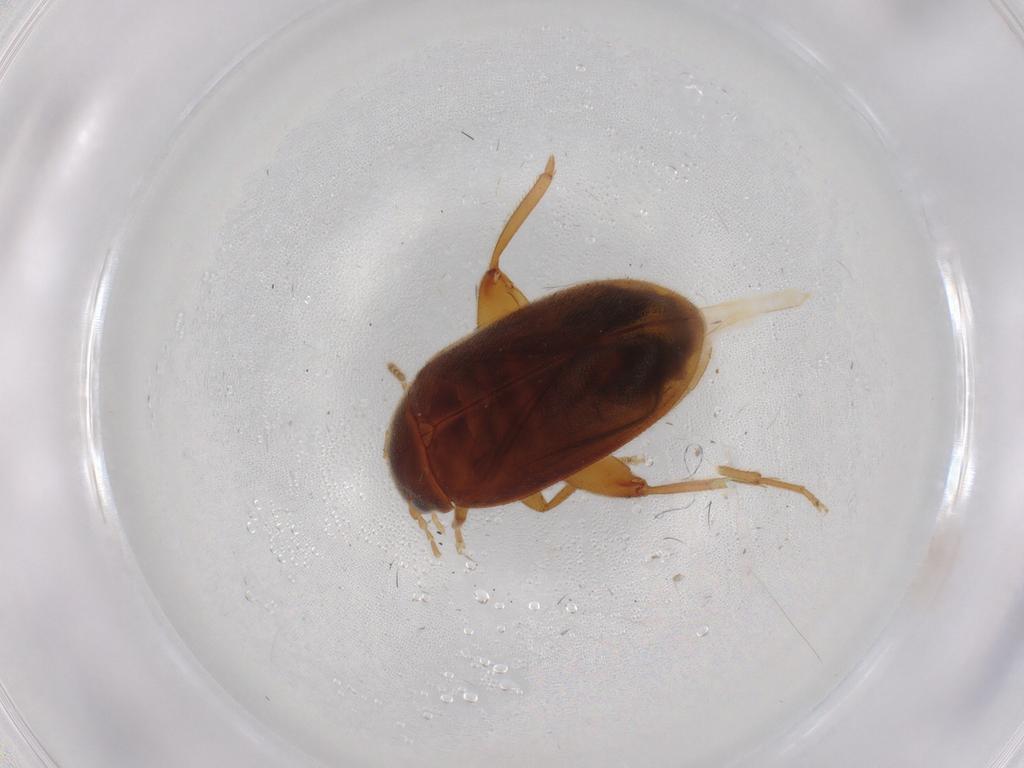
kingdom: Animalia
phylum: Arthropoda
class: Insecta
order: Coleoptera
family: Scirtidae
